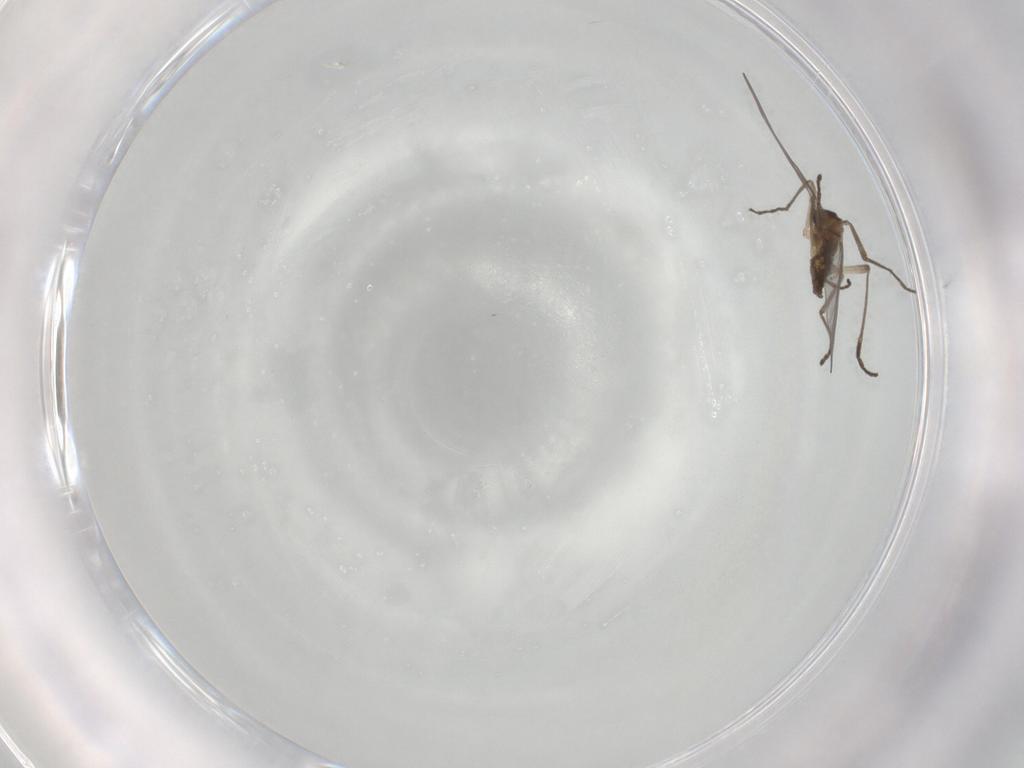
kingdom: Animalia
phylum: Arthropoda
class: Insecta
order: Diptera
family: Cecidomyiidae
